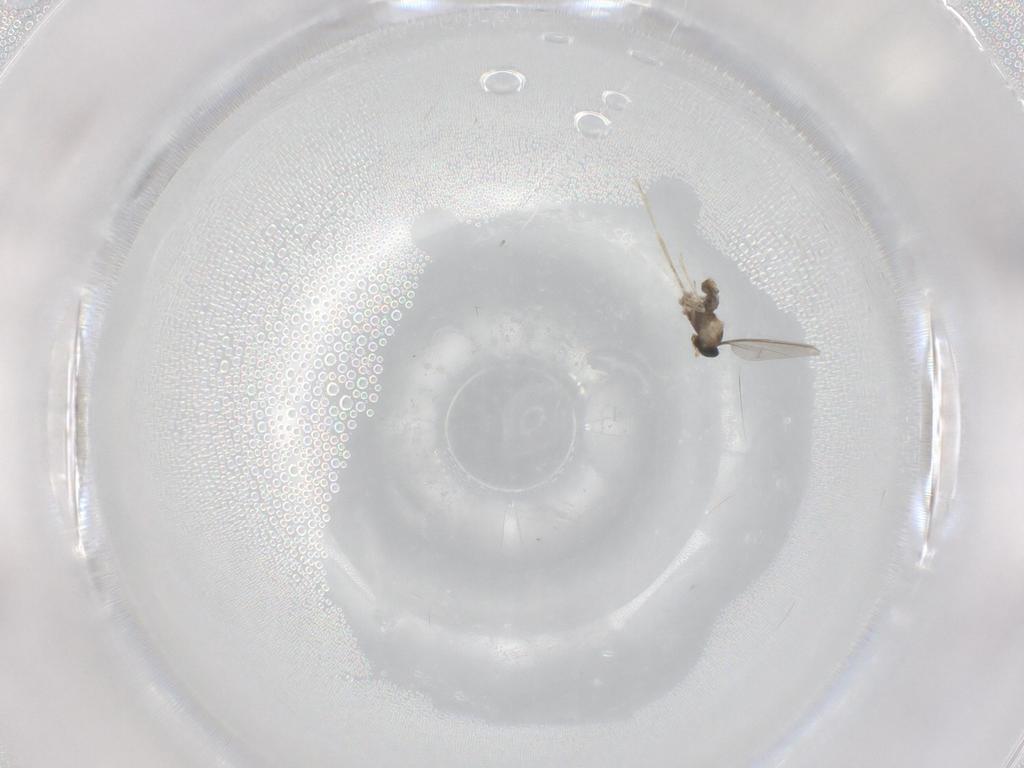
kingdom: Animalia
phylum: Arthropoda
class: Insecta
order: Diptera
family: Cecidomyiidae
